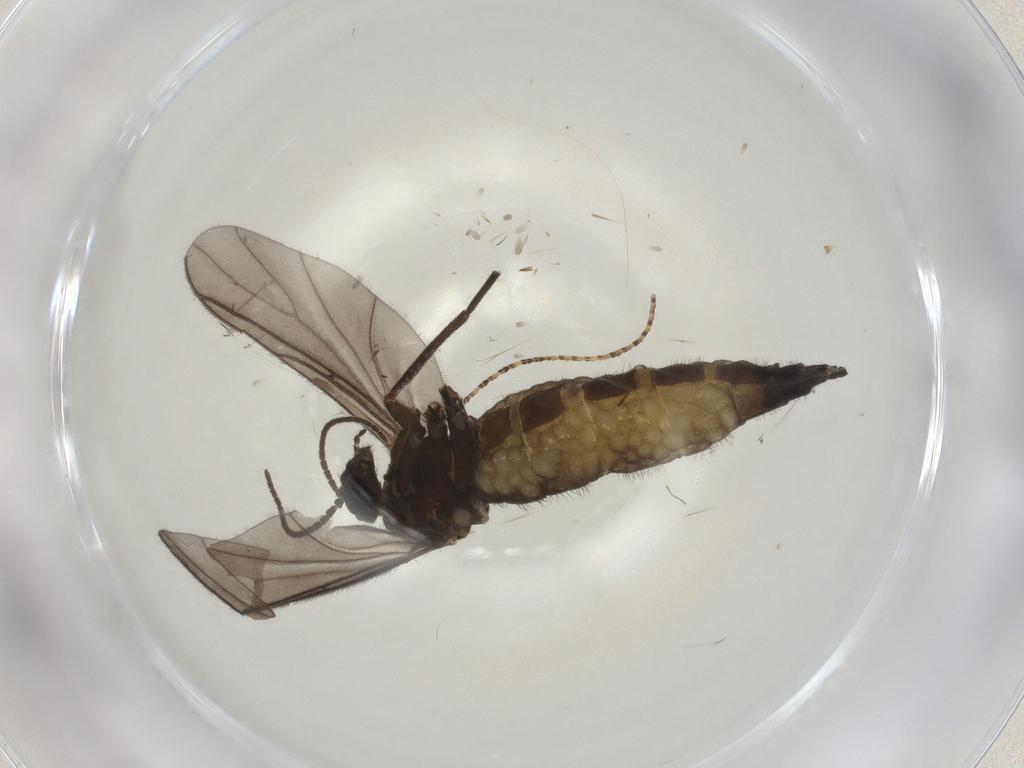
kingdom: Animalia
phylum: Arthropoda
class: Insecta
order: Diptera
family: Sciaridae
